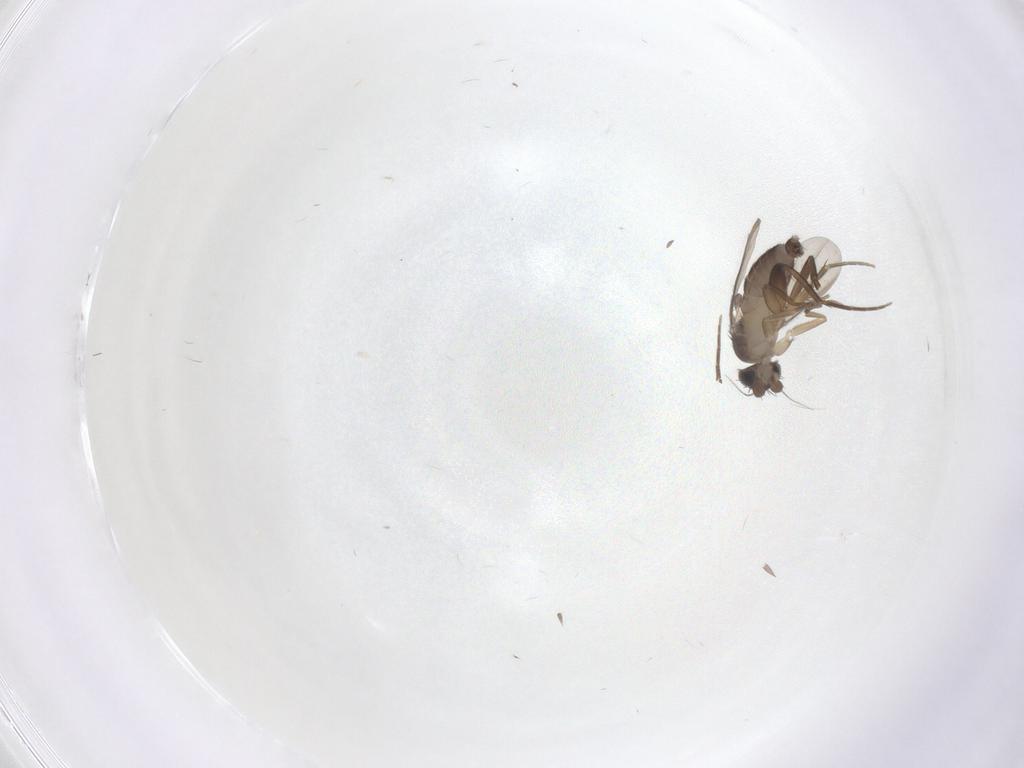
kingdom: Animalia
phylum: Arthropoda
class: Insecta
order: Diptera
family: Phoridae
